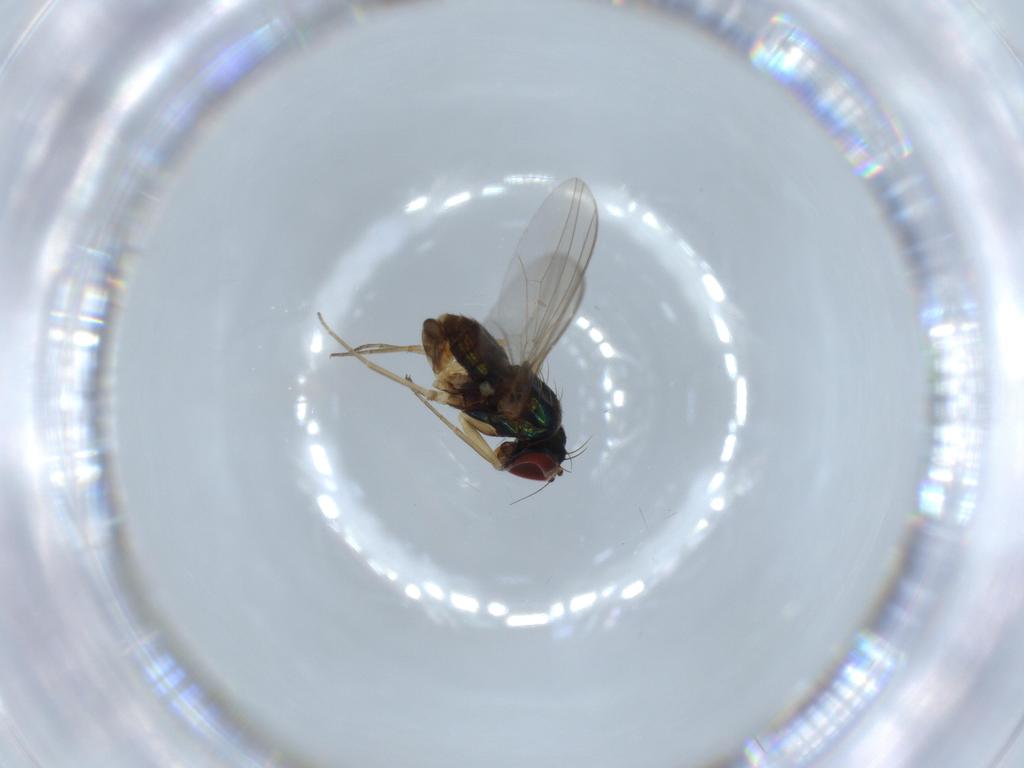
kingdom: Animalia
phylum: Arthropoda
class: Insecta
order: Diptera
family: Dolichopodidae
